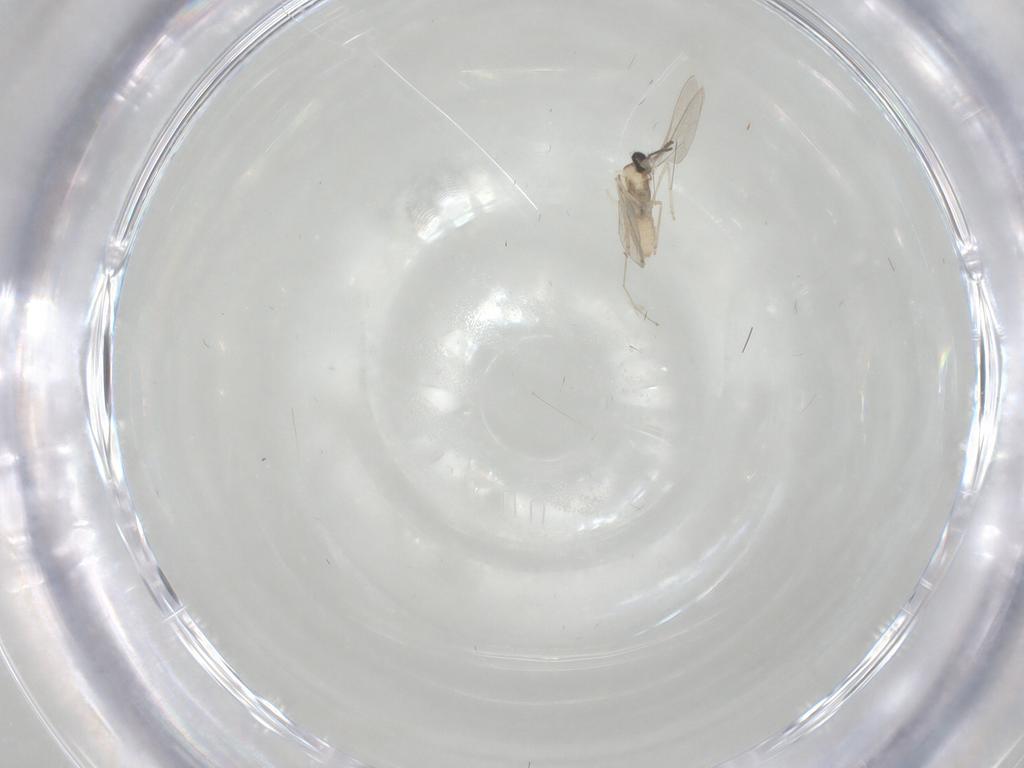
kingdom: Animalia
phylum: Arthropoda
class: Insecta
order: Diptera
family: Cecidomyiidae
